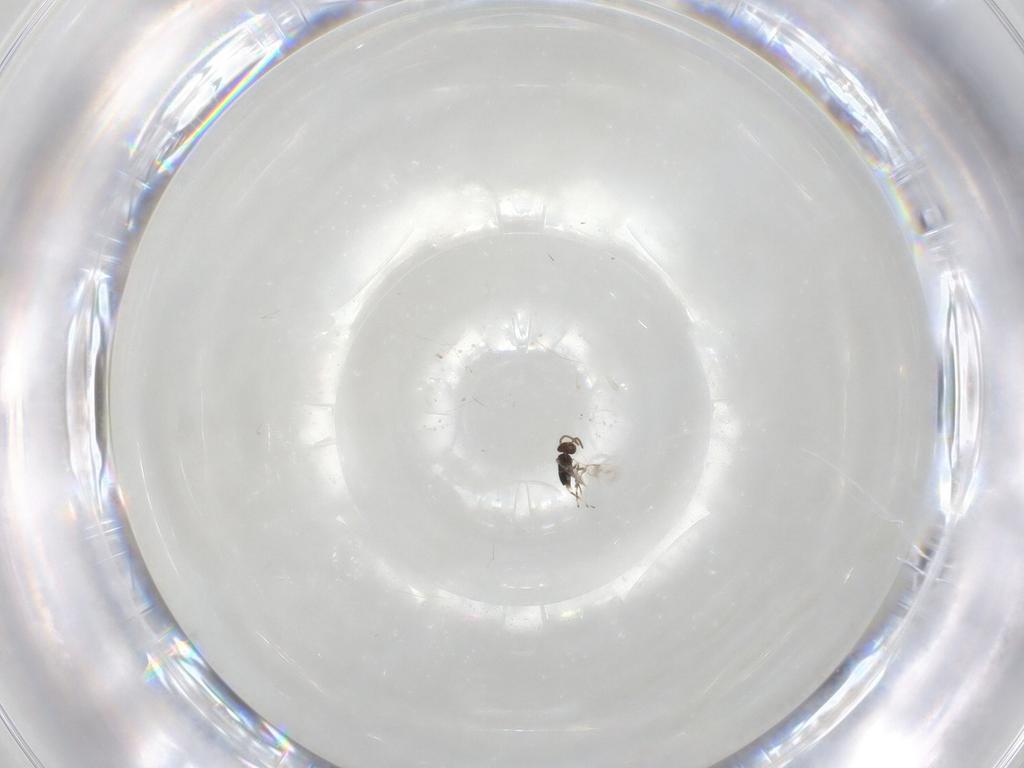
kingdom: Animalia
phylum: Arthropoda
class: Insecta
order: Hymenoptera
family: Azotidae
